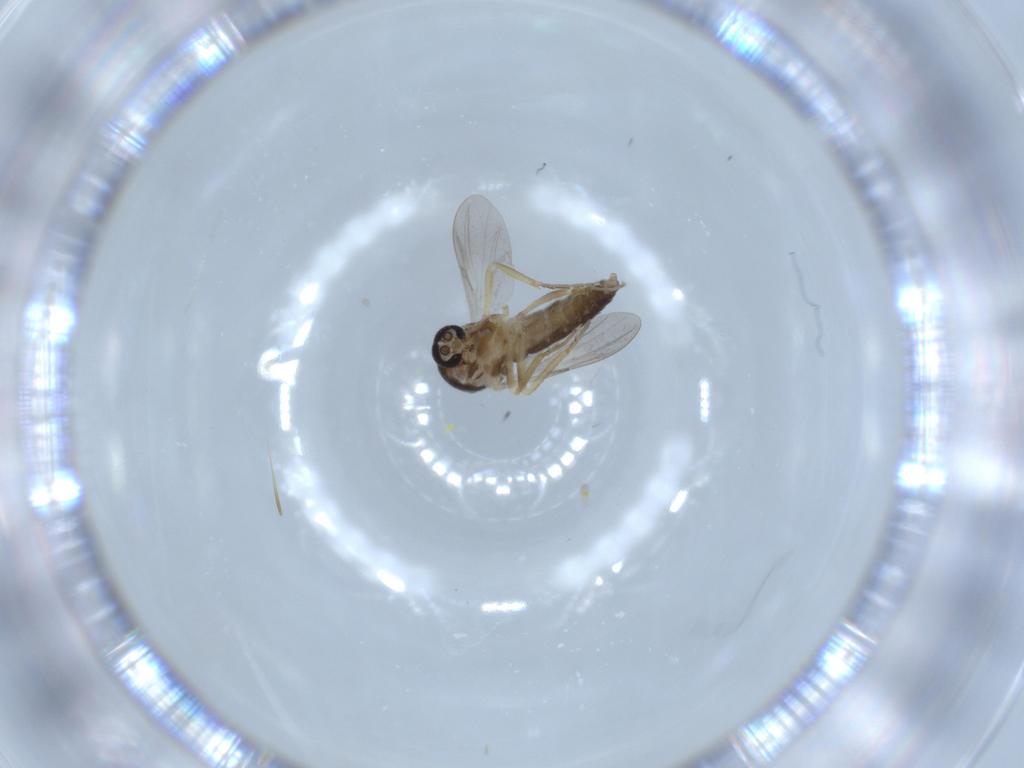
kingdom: Animalia
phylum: Arthropoda
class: Insecta
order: Diptera
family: Ceratopogonidae
